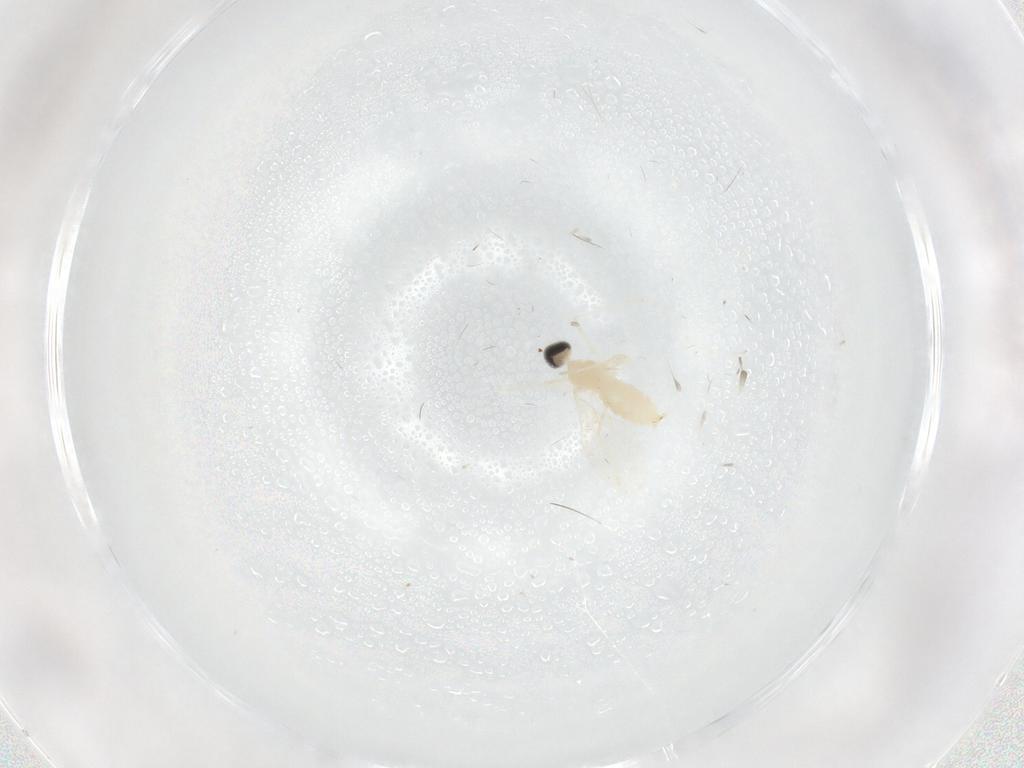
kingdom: Animalia
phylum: Arthropoda
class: Insecta
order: Diptera
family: Cecidomyiidae
